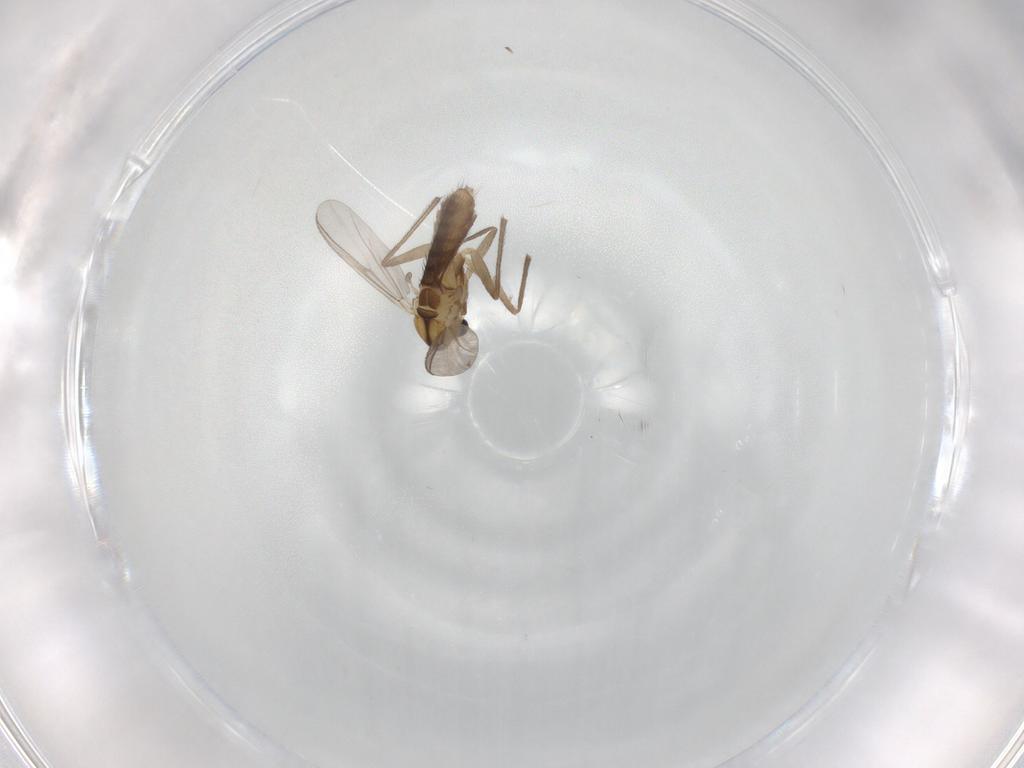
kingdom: Animalia
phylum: Arthropoda
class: Insecta
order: Diptera
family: Chironomidae
